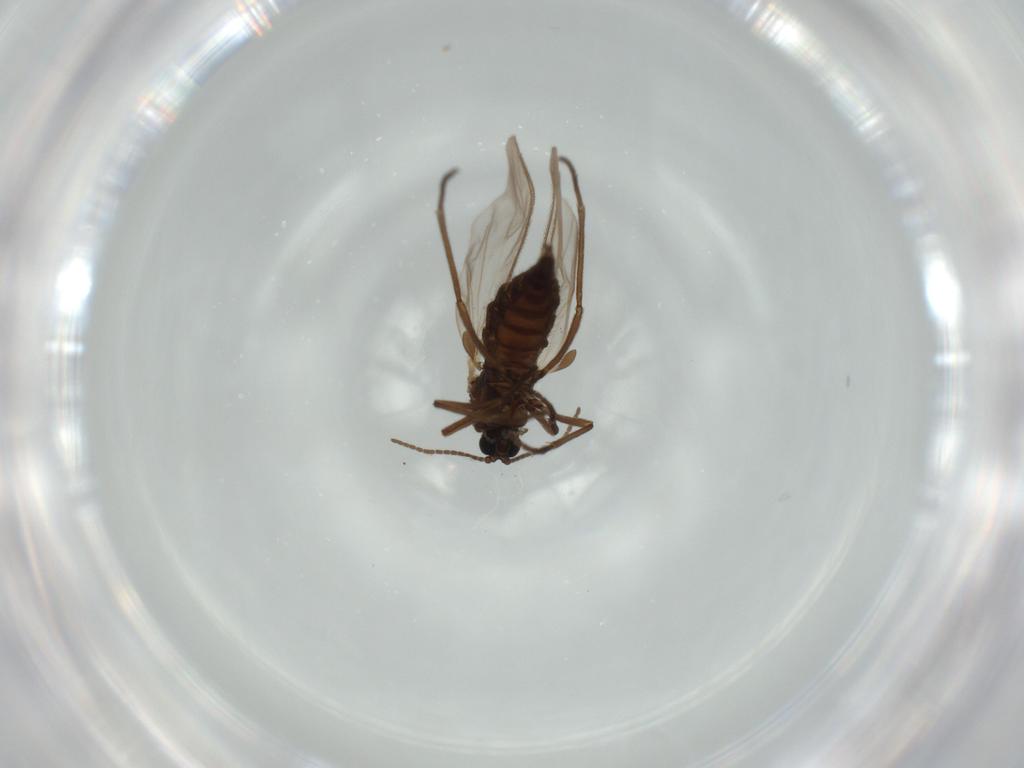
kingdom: Animalia
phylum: Arthropoda
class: Insecta
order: Diptera
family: Sciaridae
